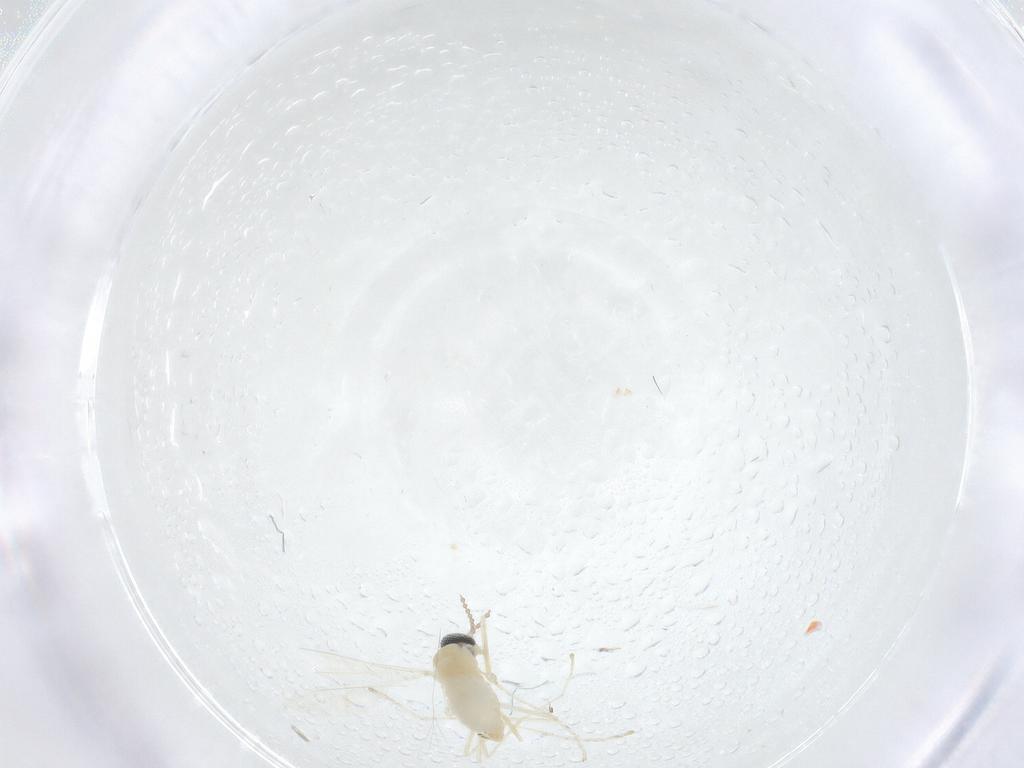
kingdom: Animalia
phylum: Arthropoda
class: Insecta
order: Diptera
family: Cecidomyiidae
